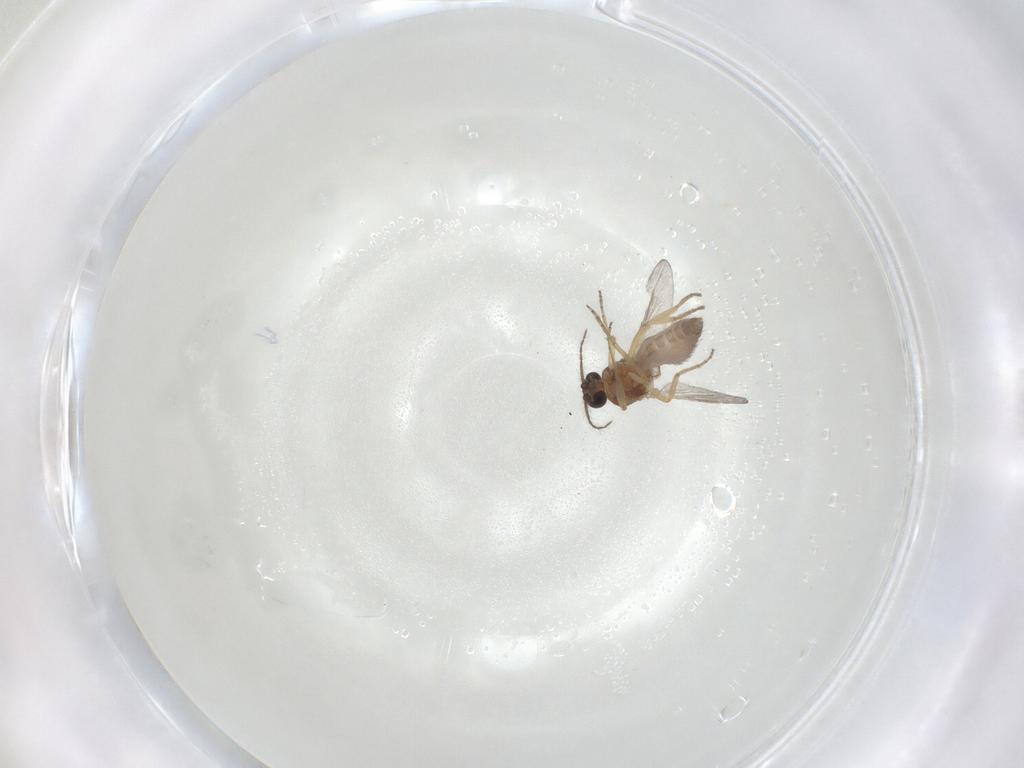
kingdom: Animalia
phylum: Arthropoda
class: Insecta
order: Diptera
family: Ceratopogonidae
